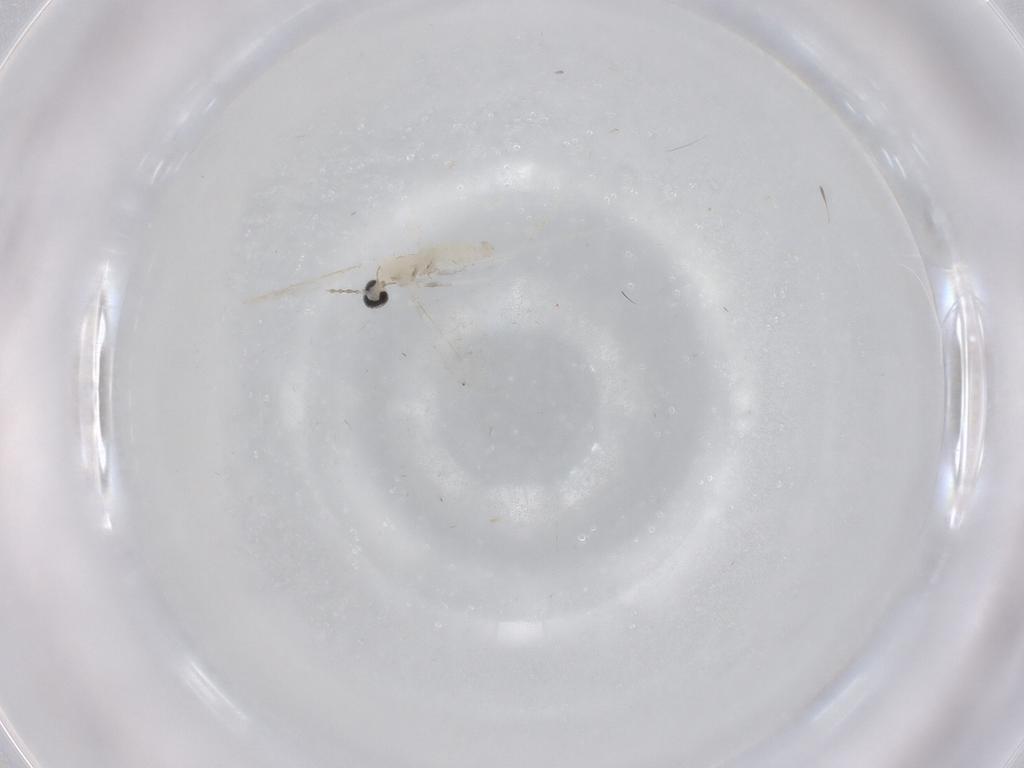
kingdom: Animalia
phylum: Arthropoda
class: Insecta
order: Diptera
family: Cecidomyiidae
